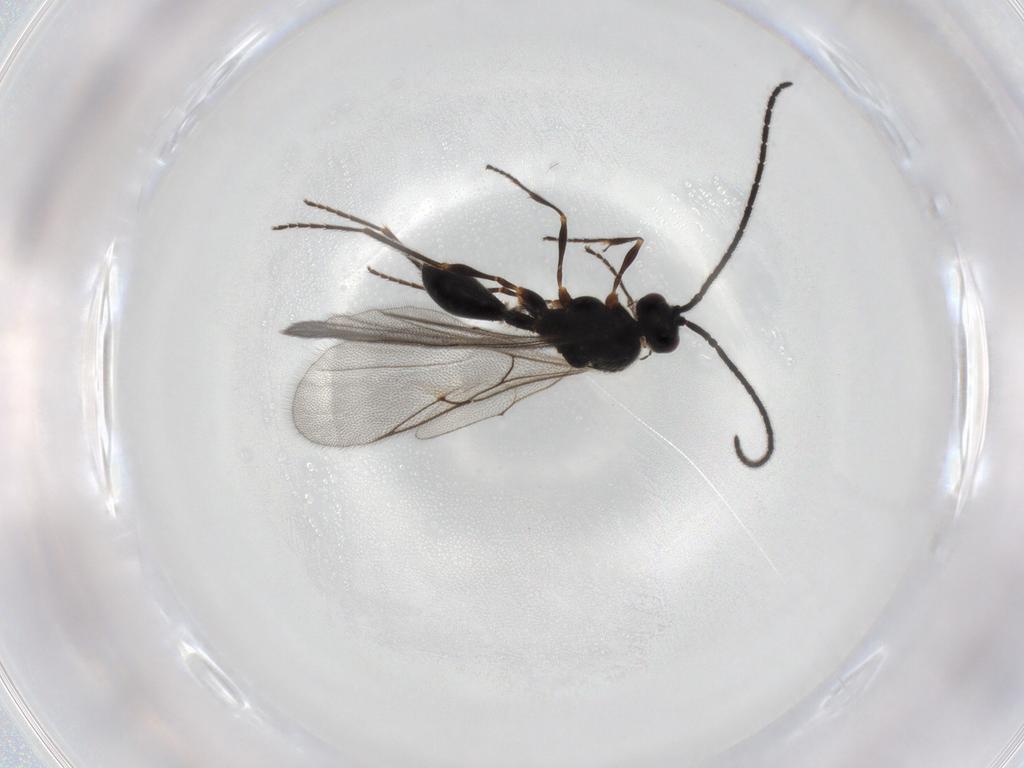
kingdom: Animalia
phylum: Arthropoda
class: Insecta
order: Hymenoptera
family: Diapriidae
